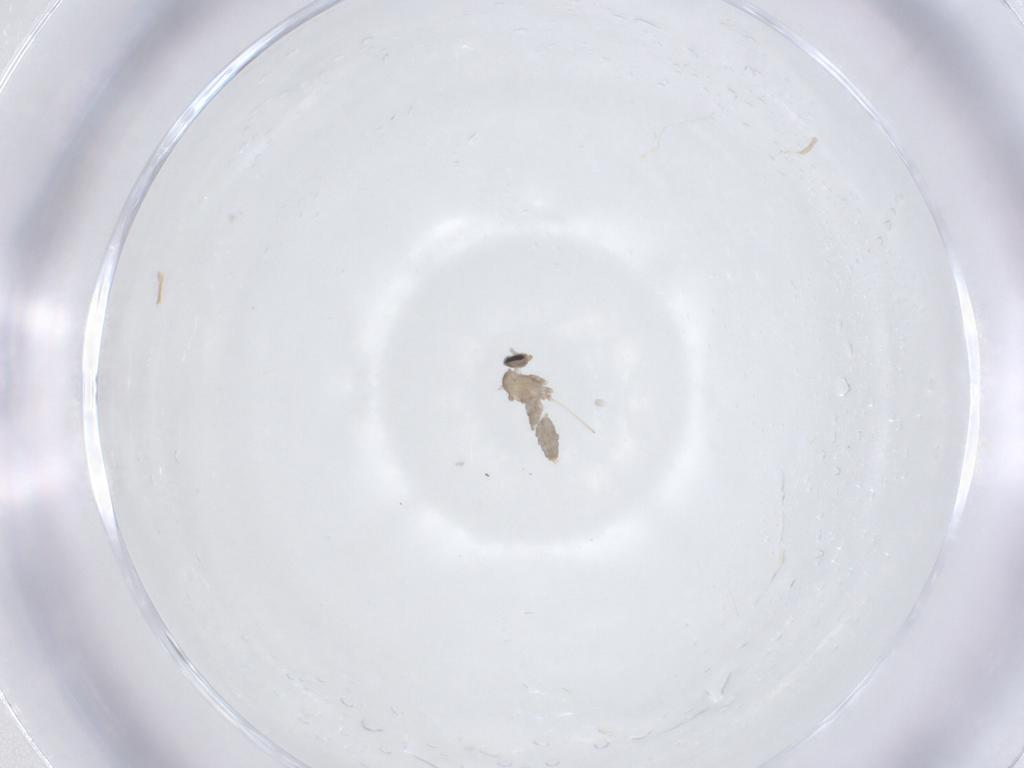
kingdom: Animalia
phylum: Arthropoda
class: Insecta
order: Diptera
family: Cecidomyiidae
